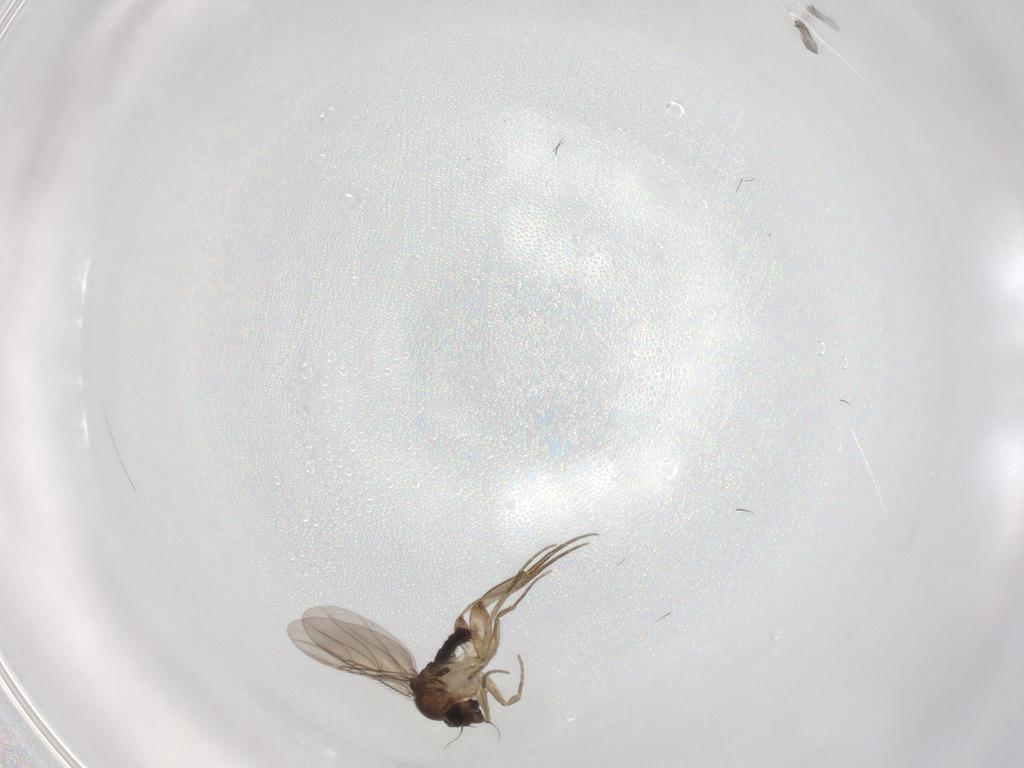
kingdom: Animalia
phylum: Arthropoda
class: Insecta
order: Diptera
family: Phoridae
